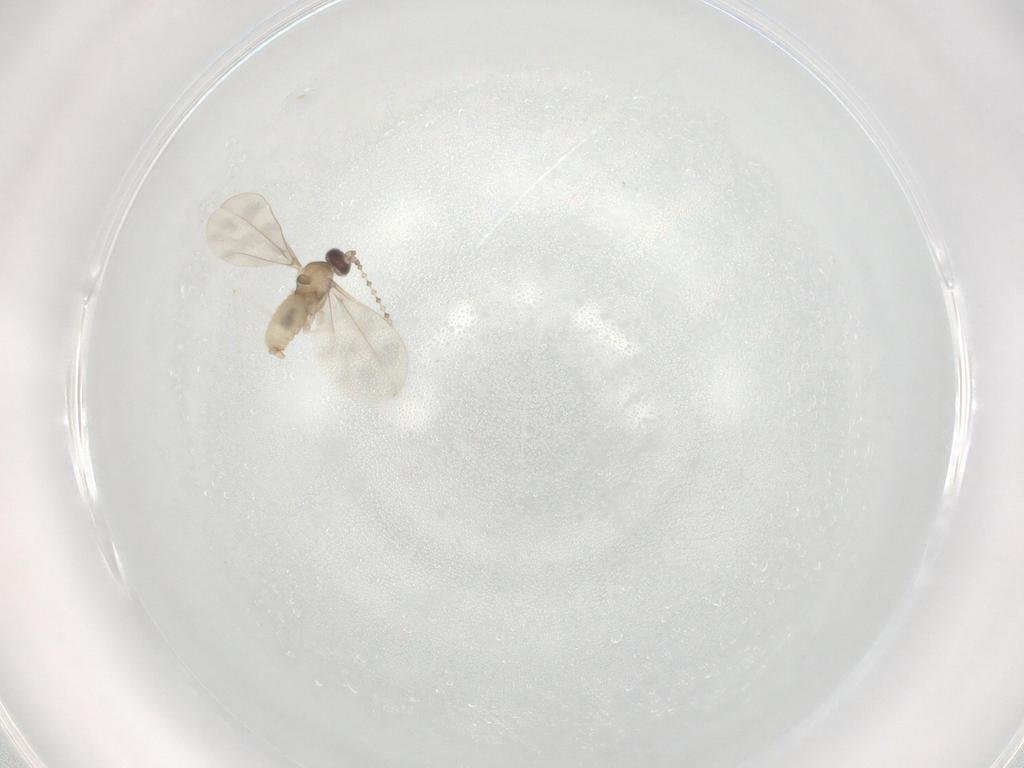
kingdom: Animalia
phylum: Arthropoda
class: Insecta
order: Diptera
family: Cecidomyiidae
